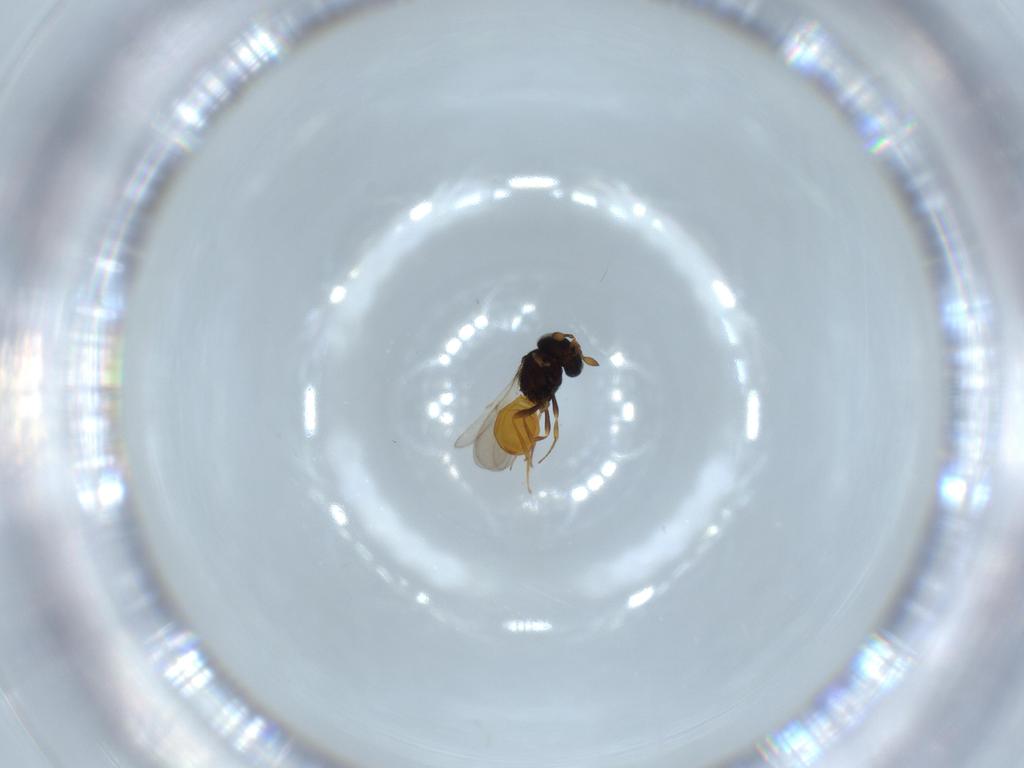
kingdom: Animalia
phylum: Arthropoda
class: Insecta
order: Hymenoptera
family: Scelionidae
